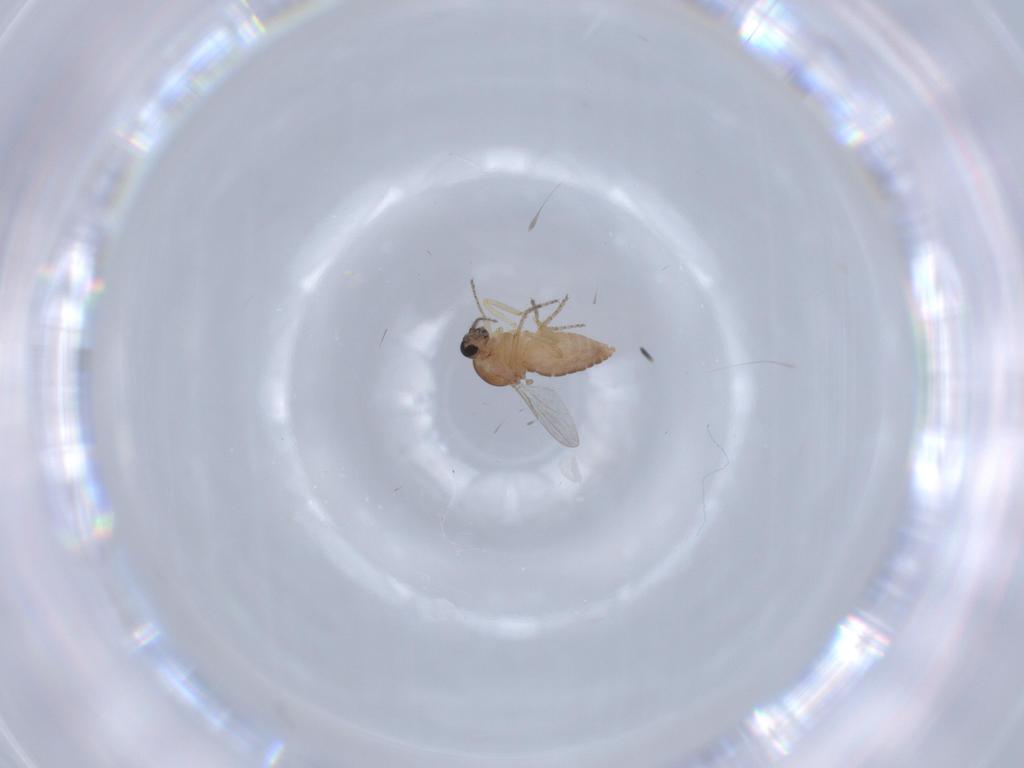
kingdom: Animalia
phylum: Arthropoda
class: Insecta
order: Diptera
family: Ceratopogonidae
